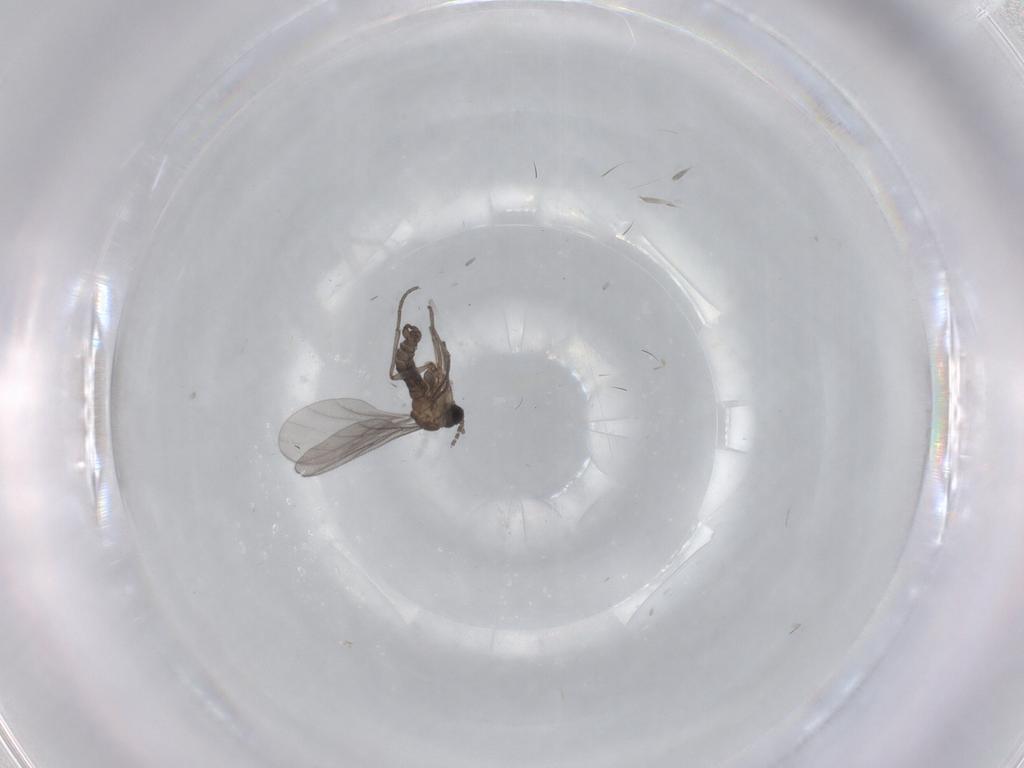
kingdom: Animalia
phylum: Arthropoda
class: Insecta
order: Diptera
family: Sciaridae
